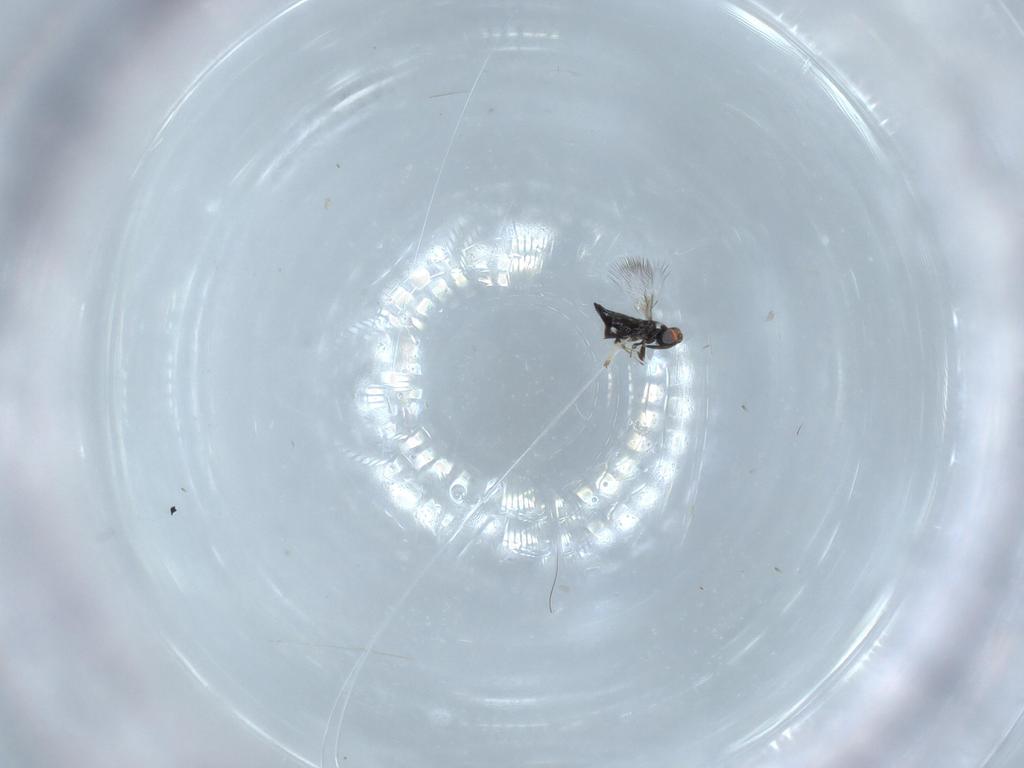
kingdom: Animalia
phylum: Arthropoda
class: Insecta
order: Hymenoptera
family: Signiphoridae
